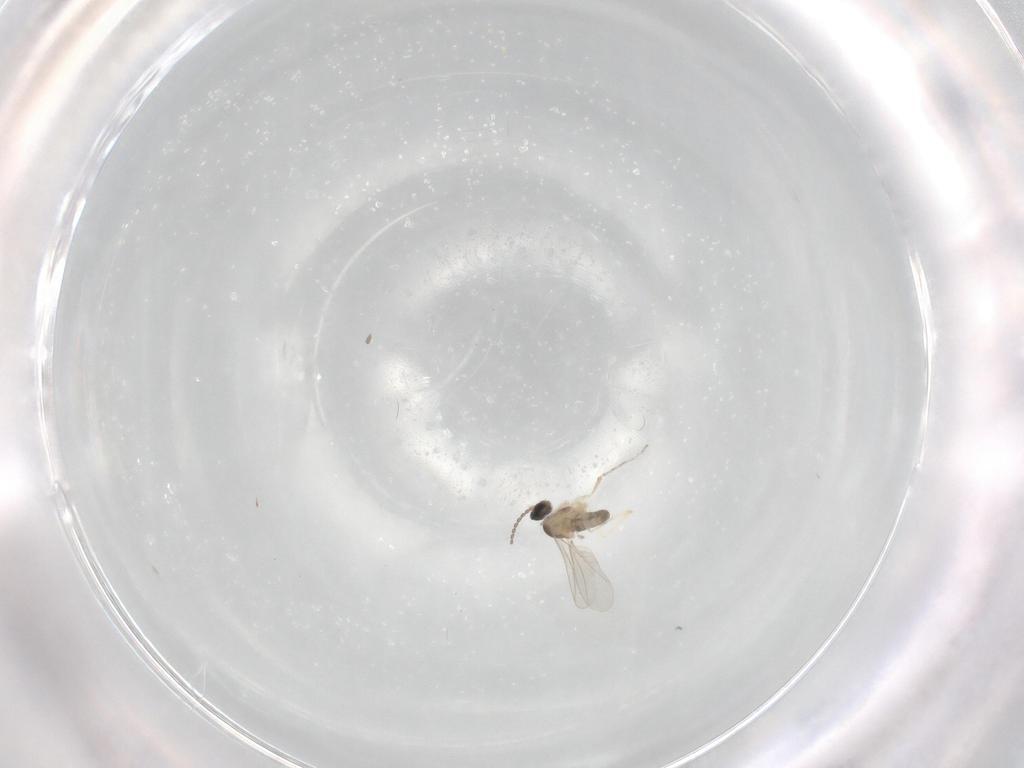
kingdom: Animalia
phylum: Arthropoda
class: Insecta
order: Diptera
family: Cecidomyiidae
